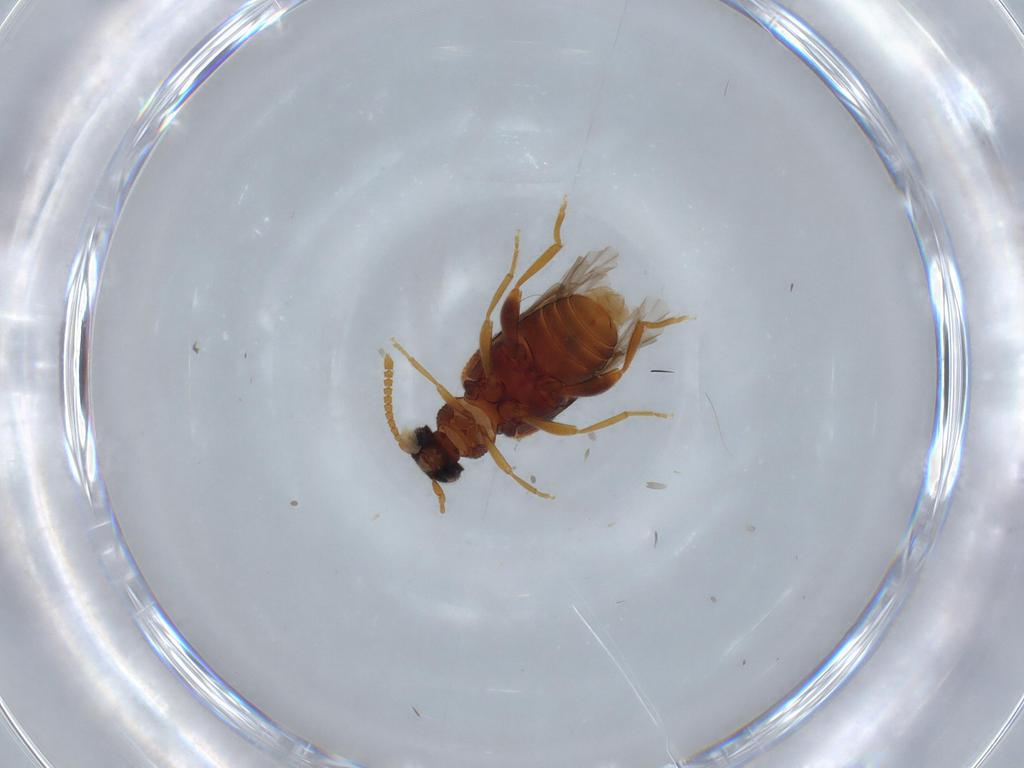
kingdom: Animalia
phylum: Arthropoda
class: Insecta
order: Coleoptera
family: Aderidae
